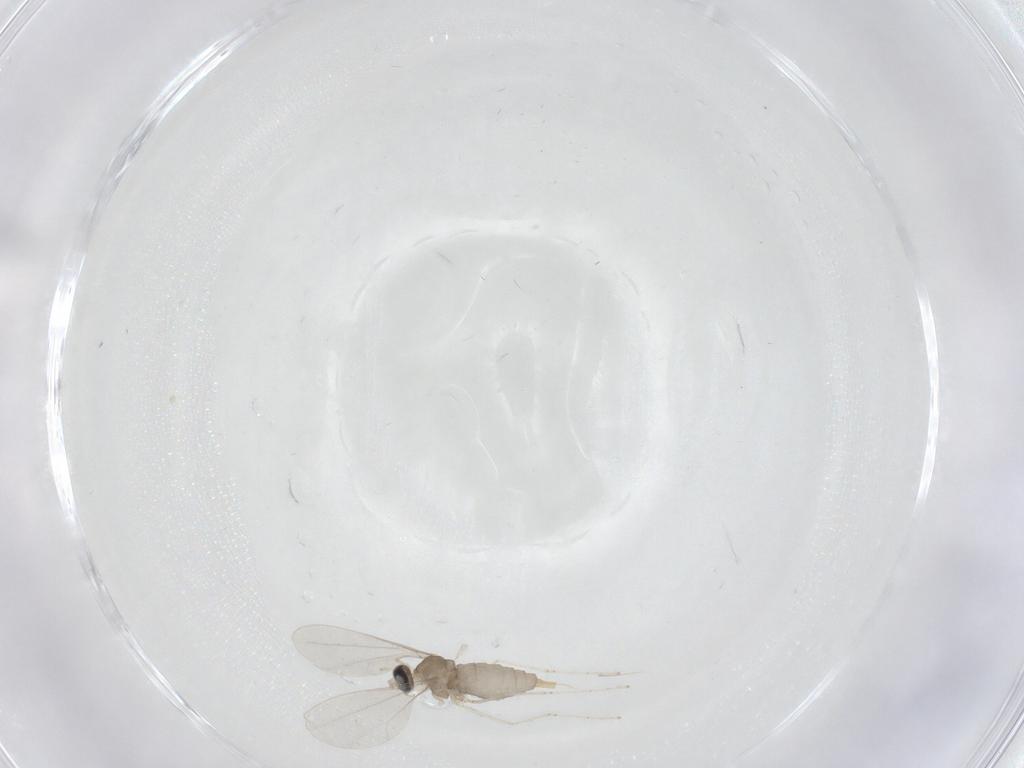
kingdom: Animalia
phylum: Arthropoda
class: Insecta
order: Diptera
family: Cecidomyiidae
